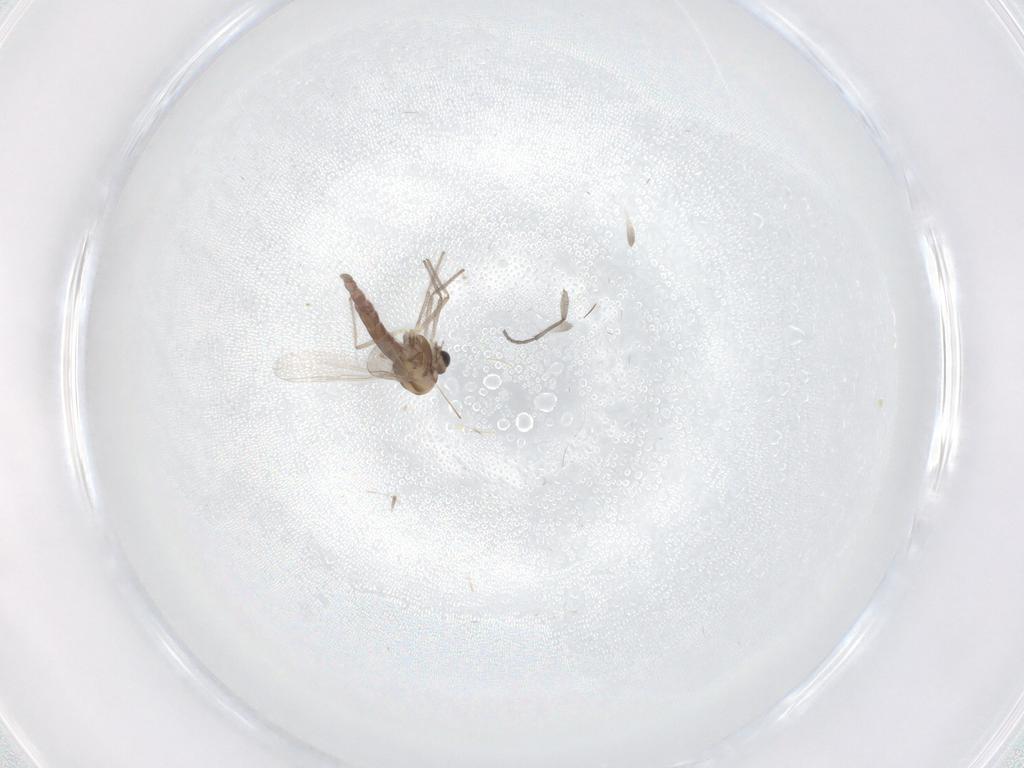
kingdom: Animalia
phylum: Arthropoda
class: Insecta
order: Diptera
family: Chironomidae
